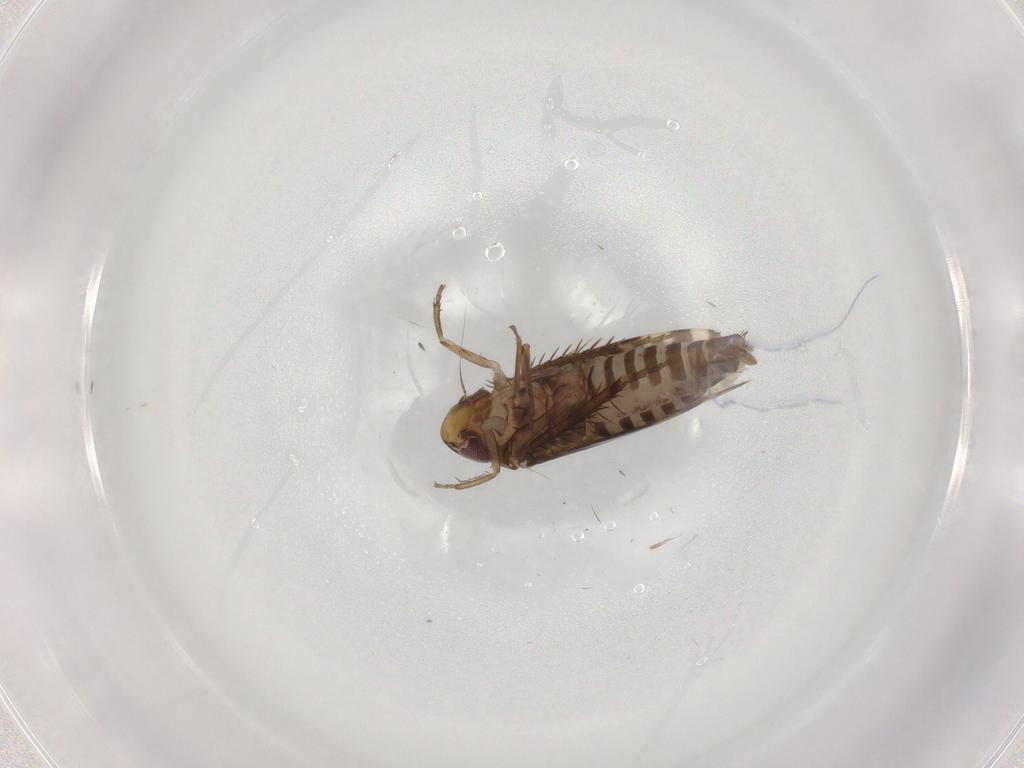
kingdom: Animalia
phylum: Arthropoda
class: Insecta
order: Hemiptera
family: Cicadellidae
